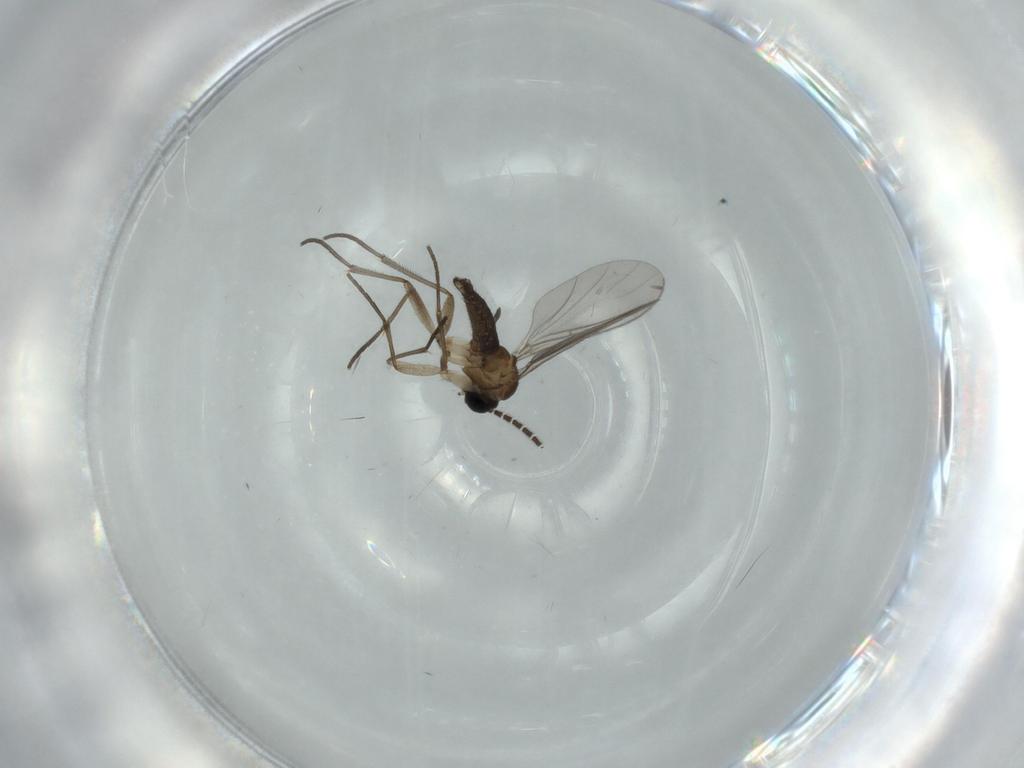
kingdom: Animalia
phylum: Arthropoda
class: Insecta
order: Diptera
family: Sciaridae
